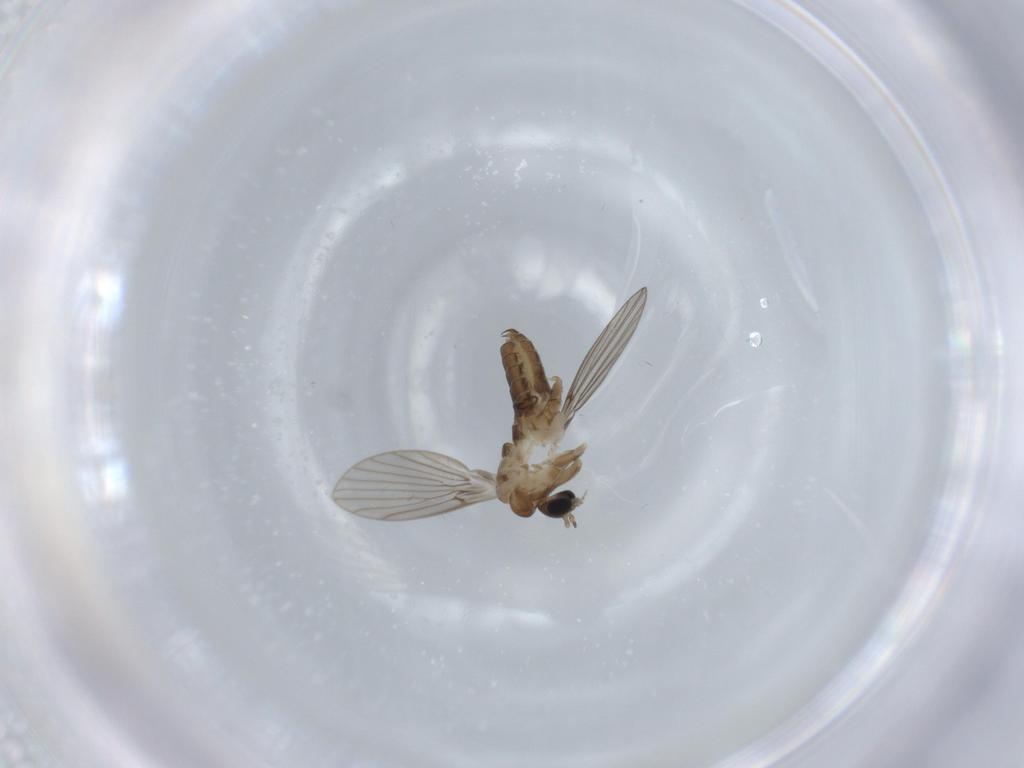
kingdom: Animalia
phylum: Arthropoda
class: Insecta
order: Diptera
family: Psychodidae
